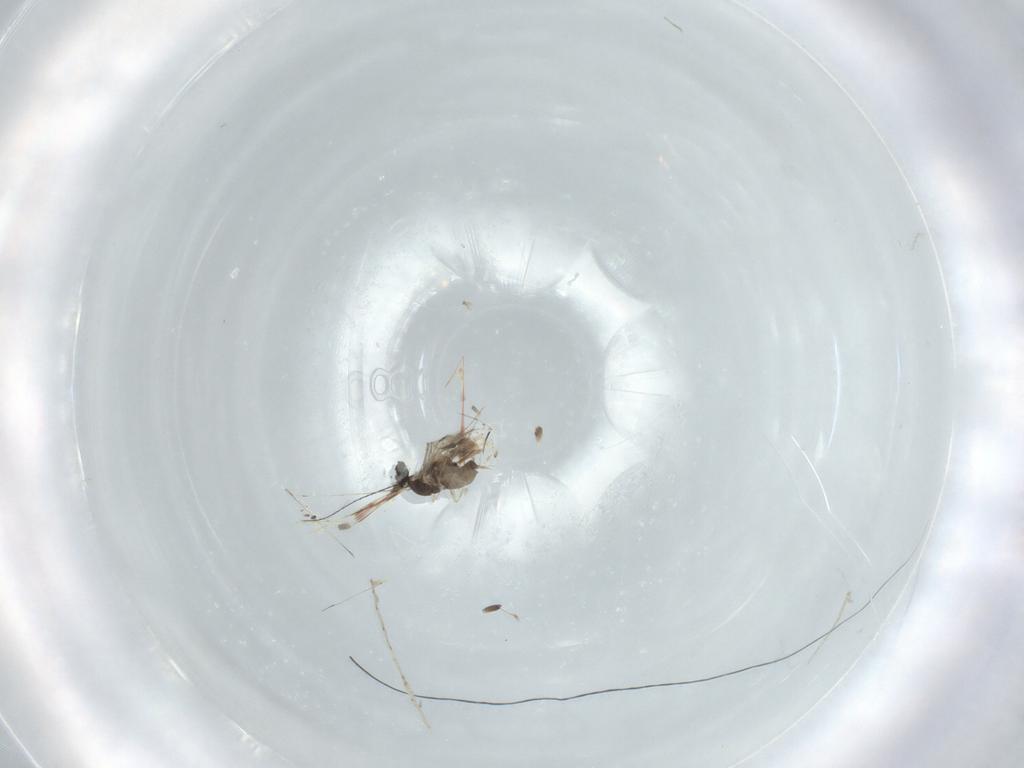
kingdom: Animalia
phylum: Arthropoda
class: Insecta
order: Diptera
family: Cecidomyiidae
